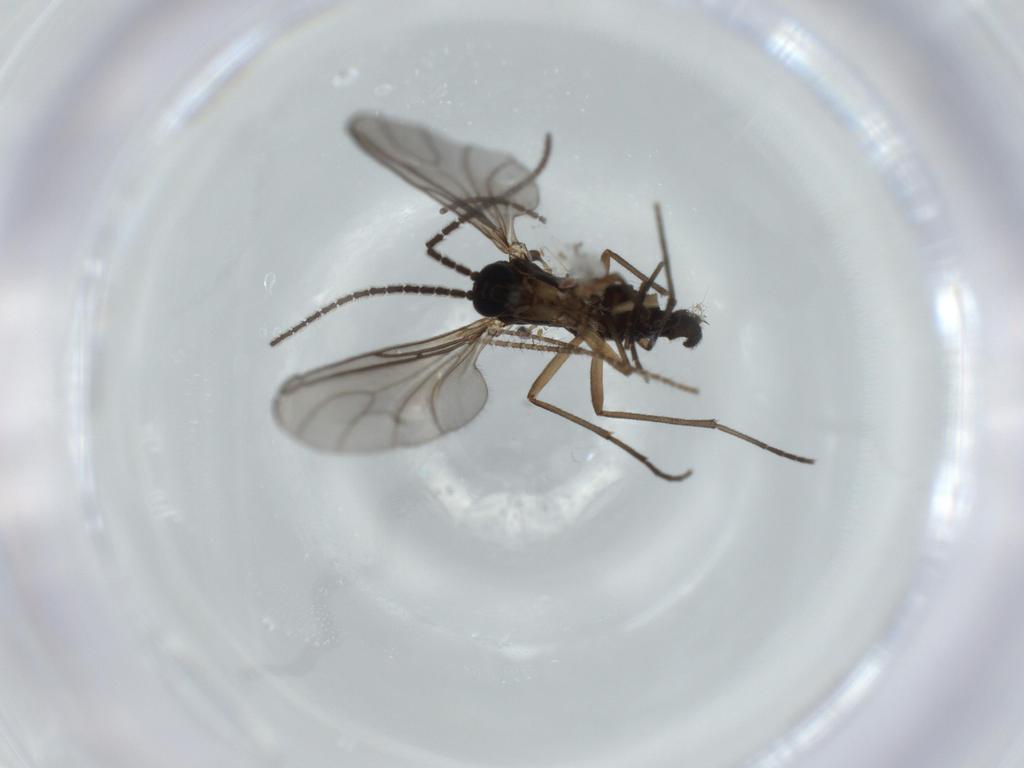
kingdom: Animalia
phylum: Arthropoda
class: Insecta
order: Diptera
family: Sciaridae
